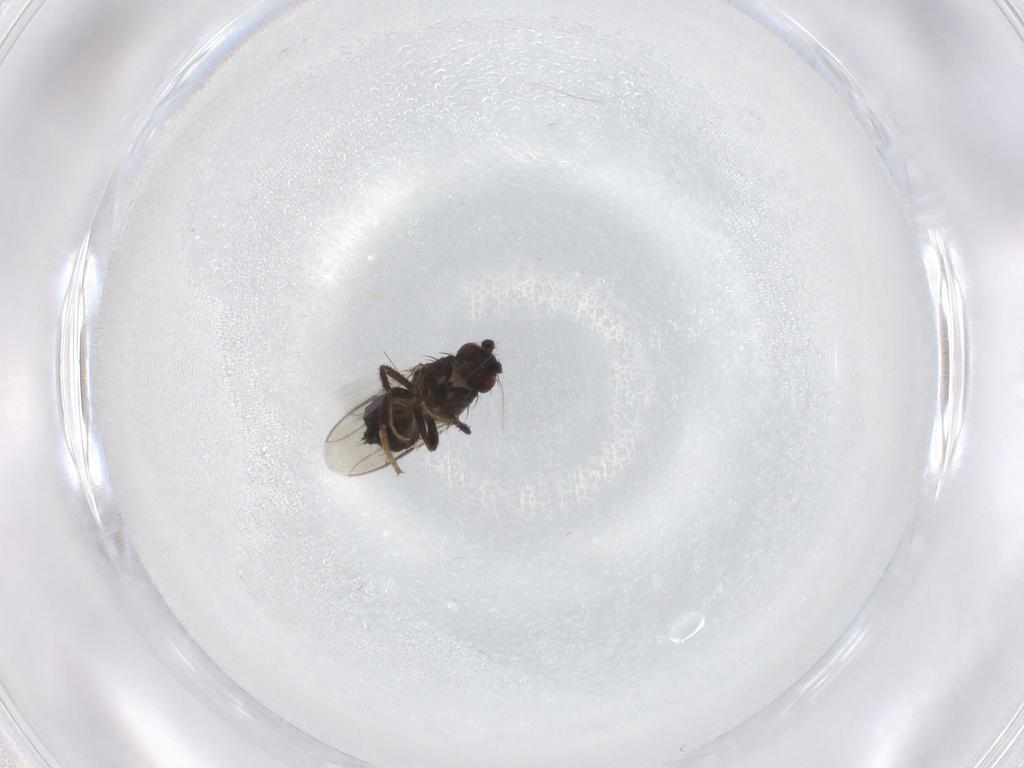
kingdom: Animalia
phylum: Arthropoda
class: Insecta
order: Diptera
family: Sphaeroceridae
